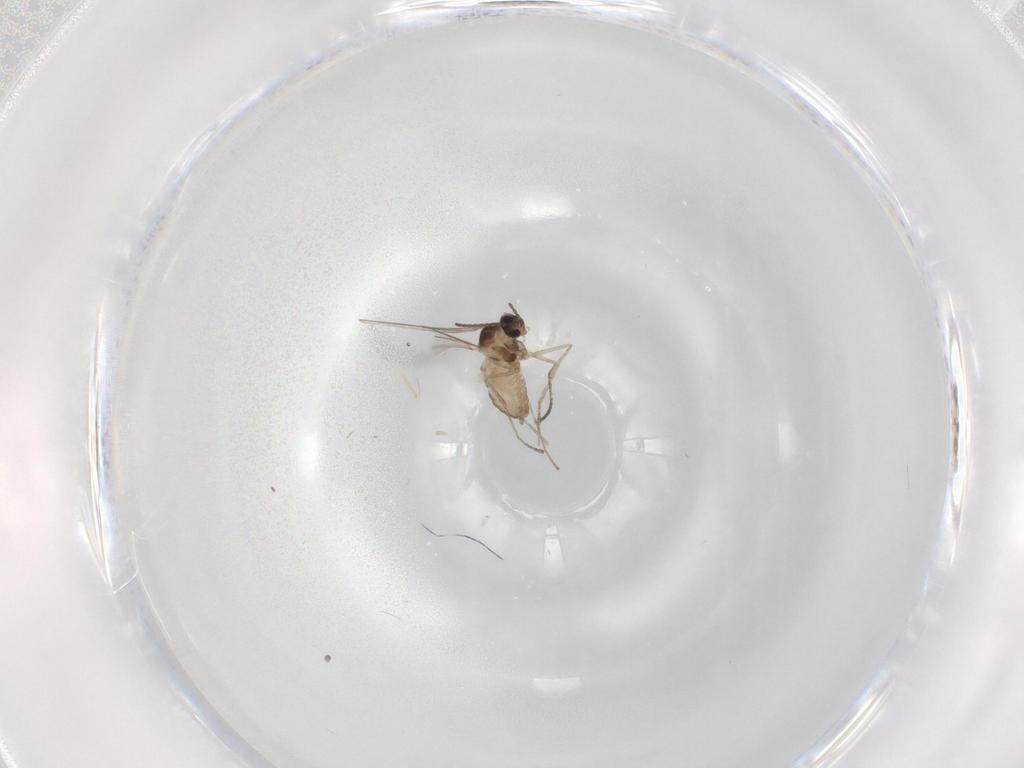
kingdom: Animalia
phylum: Arthropoda
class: Insecta
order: Diptera
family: Cecidomyiidae
